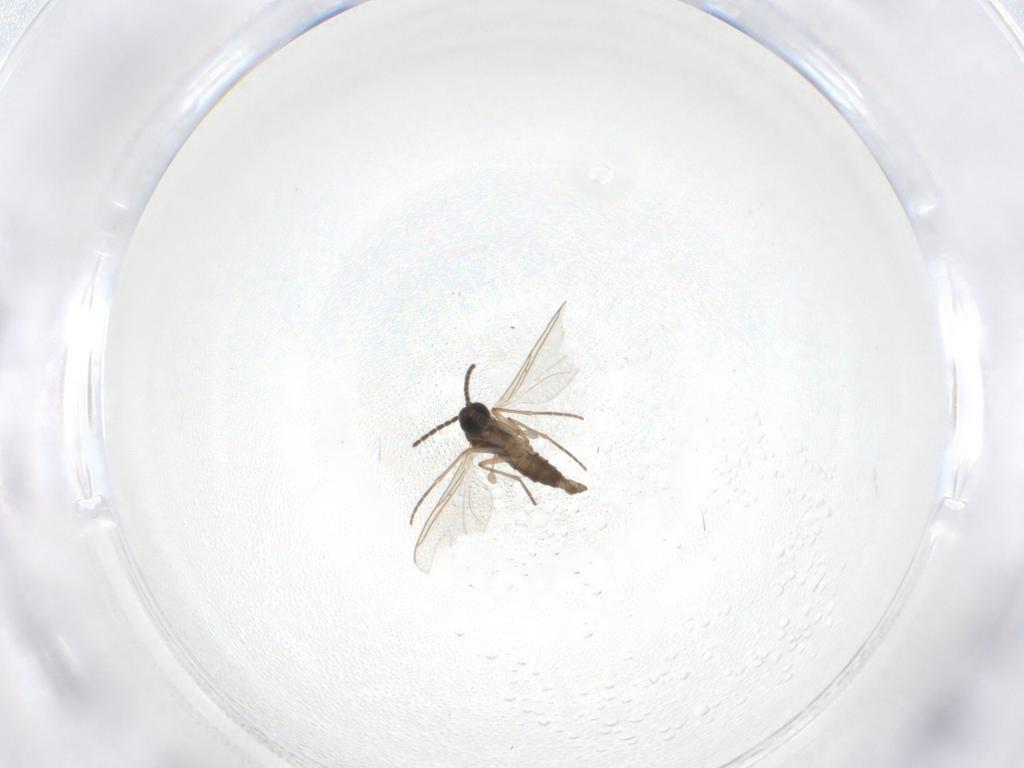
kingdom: Animalia
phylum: Arthropoda
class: Insecta
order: Diptera
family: Sciaridae
